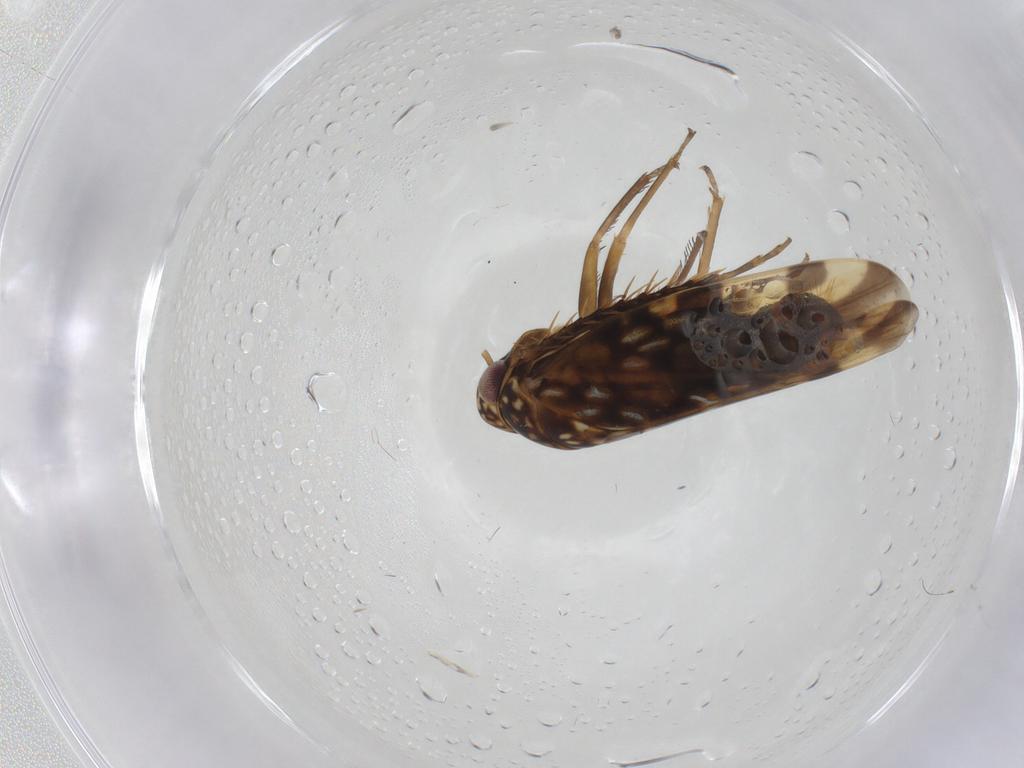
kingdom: Animalia
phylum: Arthropoda
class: Insecta
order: Hemiptera
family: Cicadellidae
